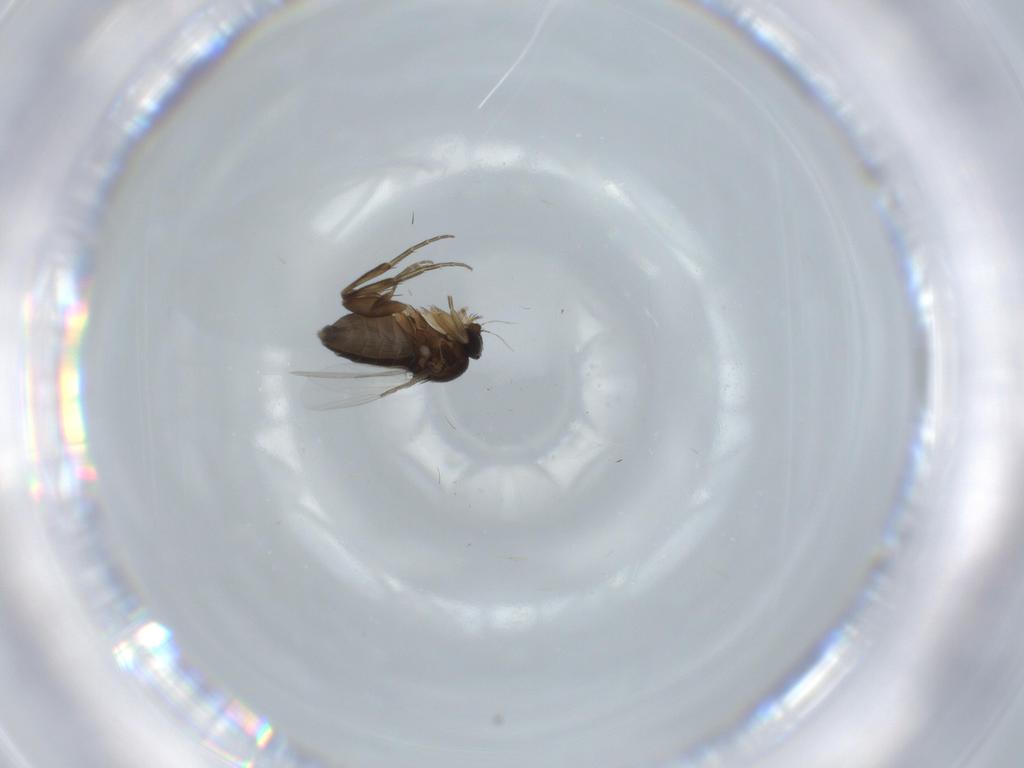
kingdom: Animalia
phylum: Arthropoda
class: Insecta
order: Diptera
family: Phoridae
